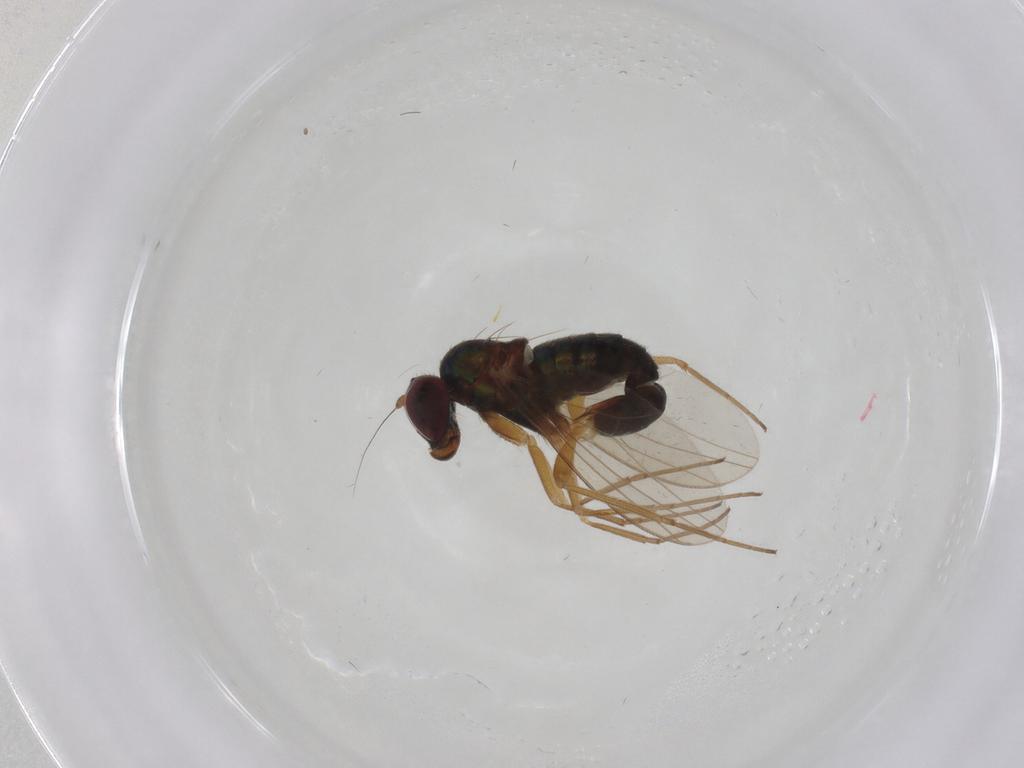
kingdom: Animalia
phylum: Arthropoda
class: Insecta
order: Diptera
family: Dolichopodidae
